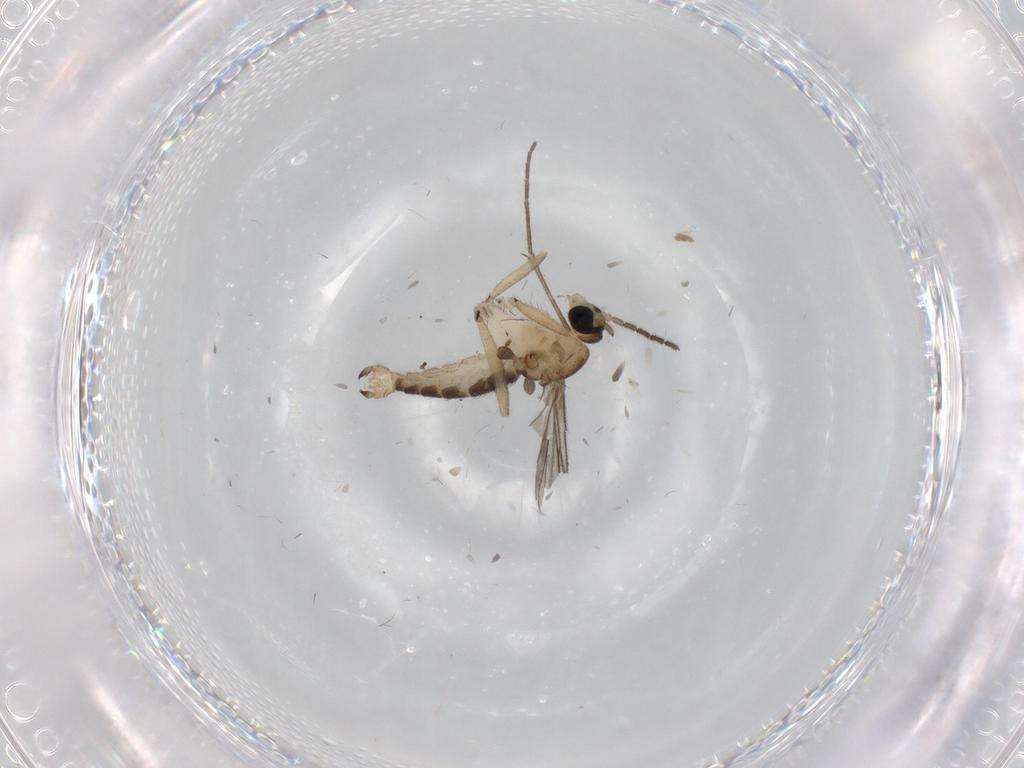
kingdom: Animalia
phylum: Arthropoda
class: Insecta
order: Diptera
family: Sciaridae
